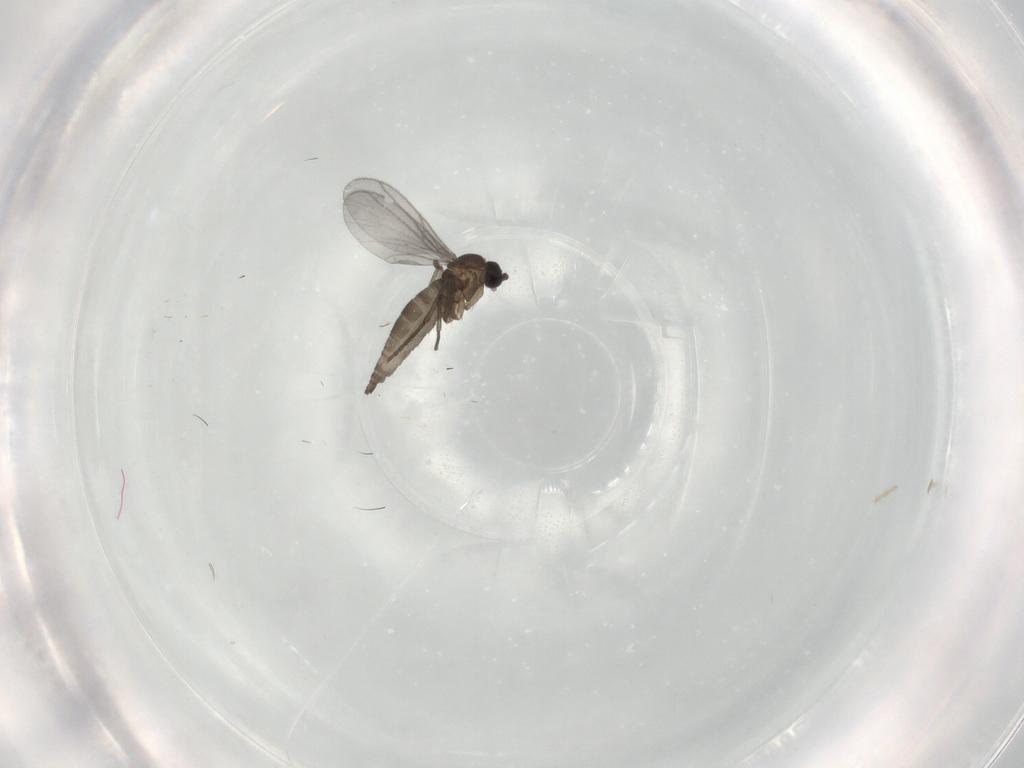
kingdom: Animalia
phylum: Arthropoda
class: Insecta
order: Diptera
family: Sciaridae
